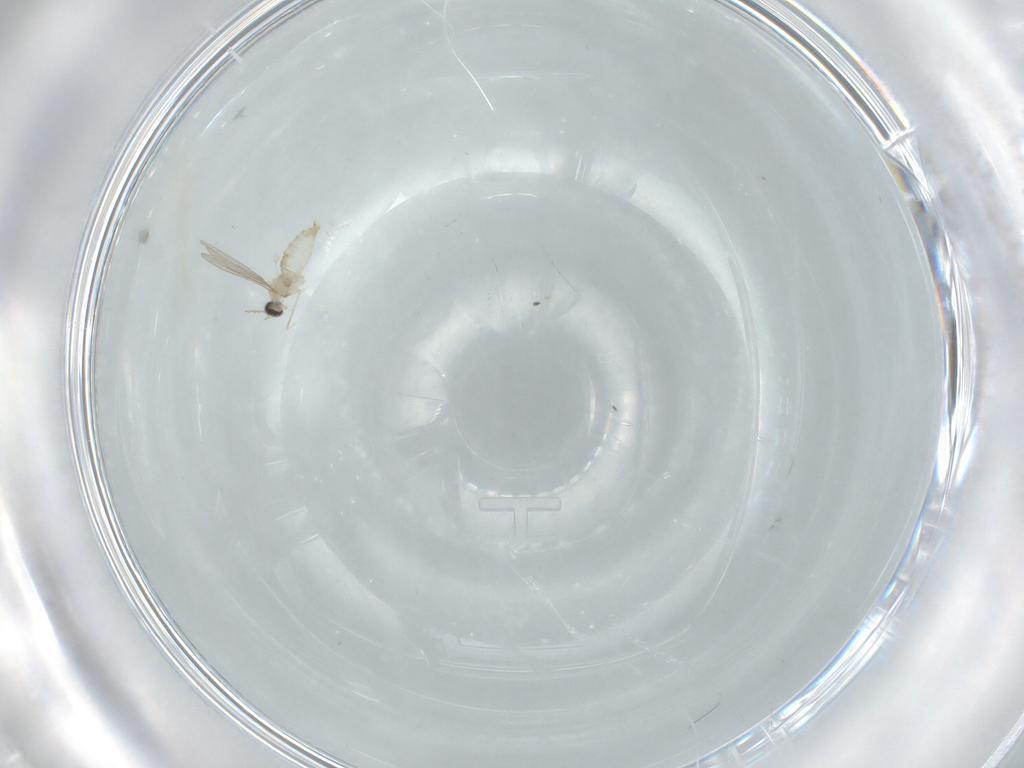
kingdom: Animalia
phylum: Arthropoda
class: Insecta
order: Diptera
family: Cecidomyiidae
